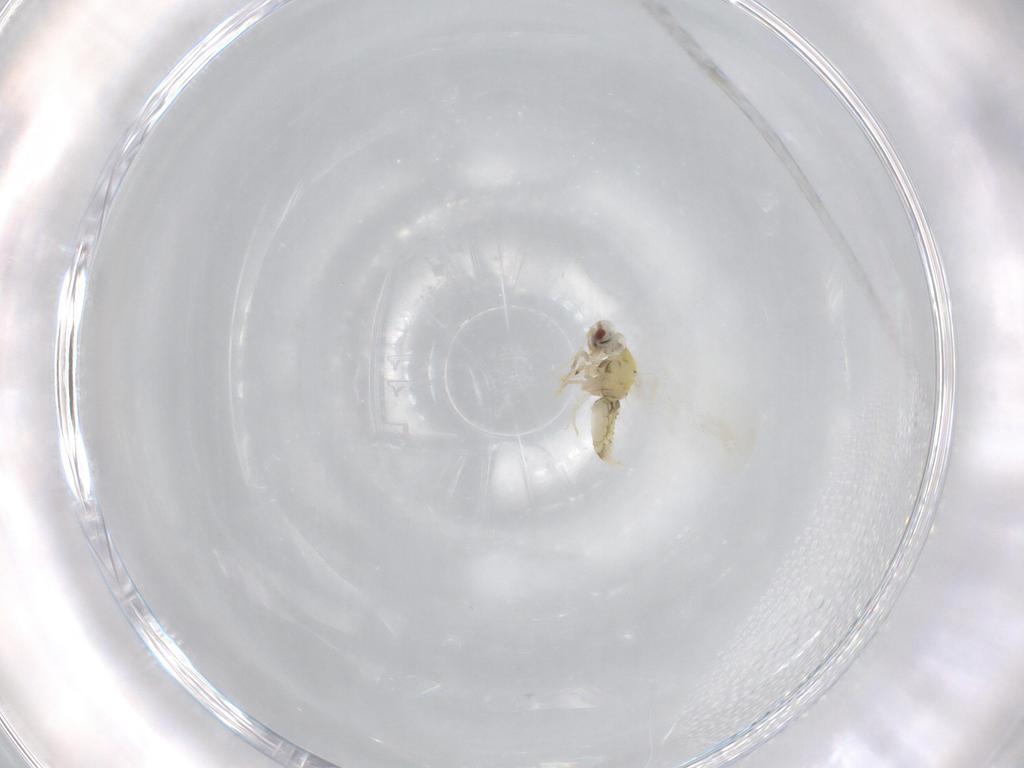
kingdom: Animalia
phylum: Arthropoda
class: Insecta
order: Hemiptera
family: Aleyrodidae
